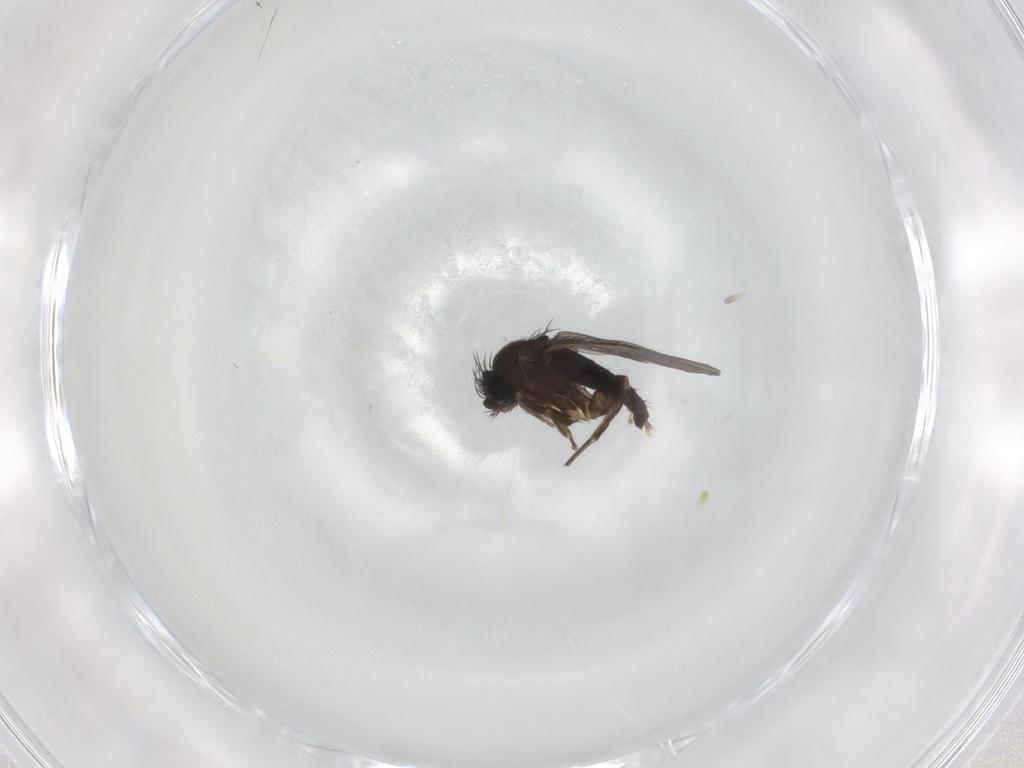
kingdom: Animalia
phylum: Arthropoda
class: Insecta
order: Diptera
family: Phoridae
